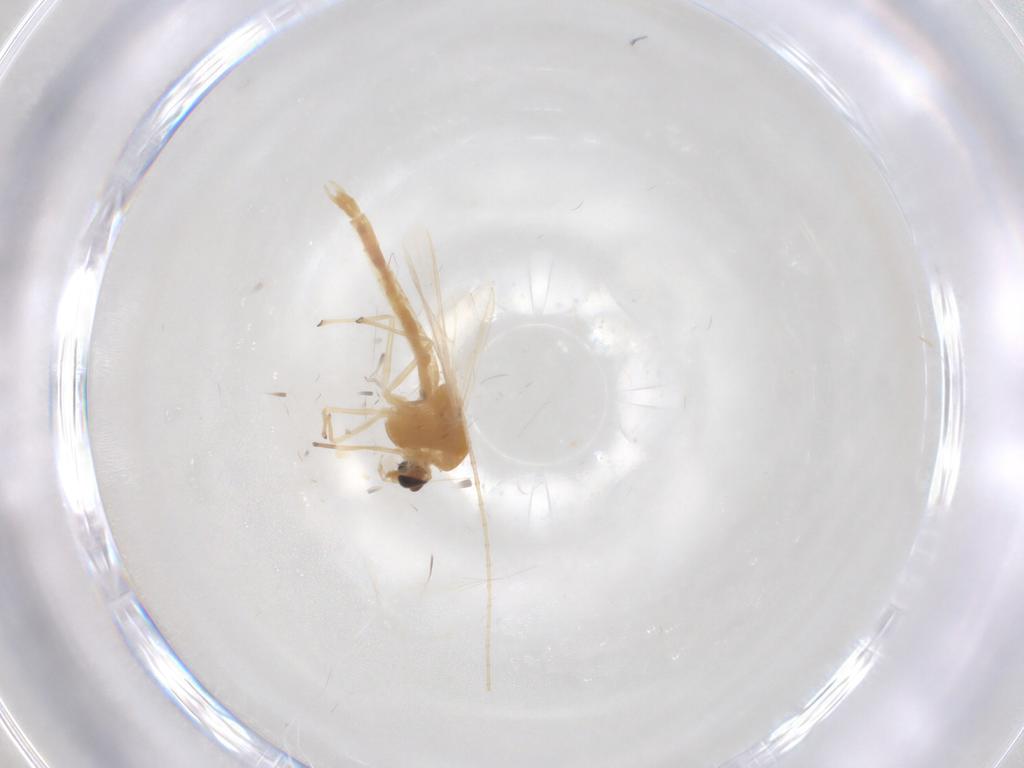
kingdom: Animalia
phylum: Arthropoda
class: Insecta
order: Diptera
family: Chironomidae
